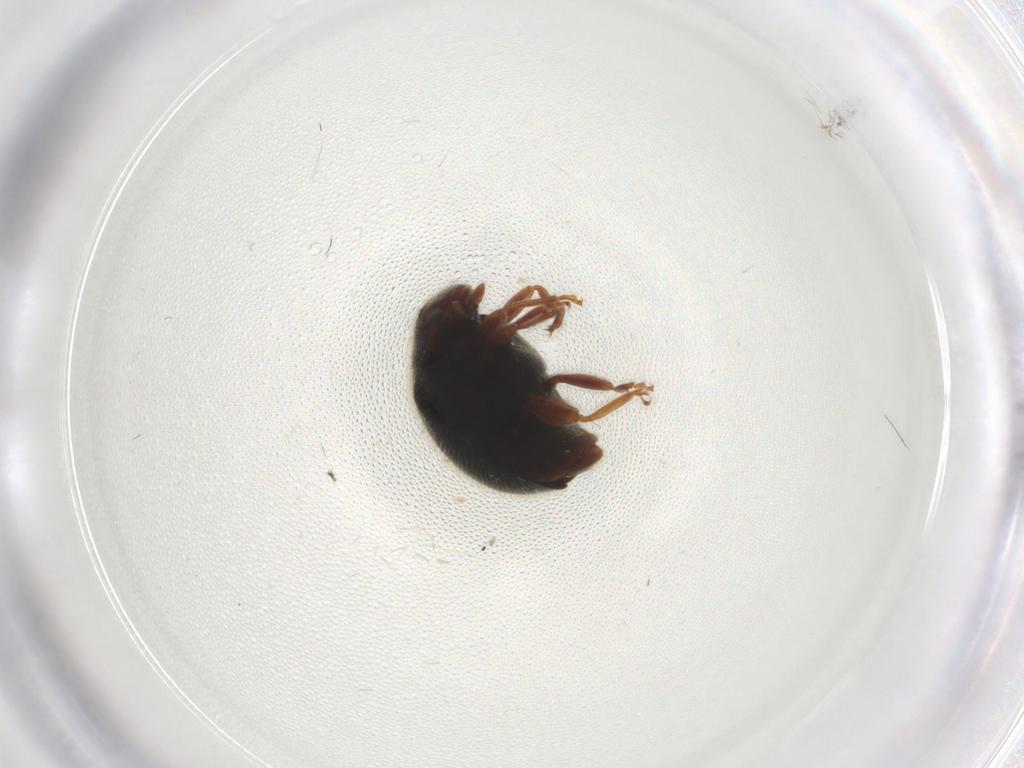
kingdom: Animalia
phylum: Arthropoda
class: Insecta
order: Coleoptera
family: Coccinellidae
